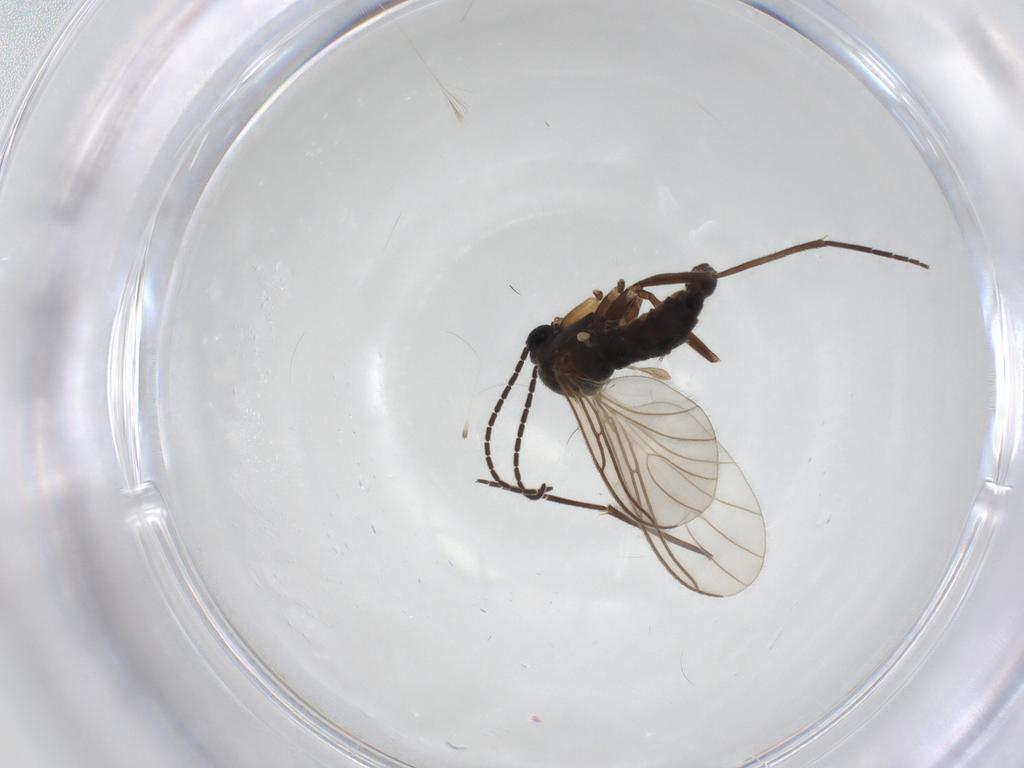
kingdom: Animalia
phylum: Arthropoda
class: Insecta
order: Diptera
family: Sciaridae
